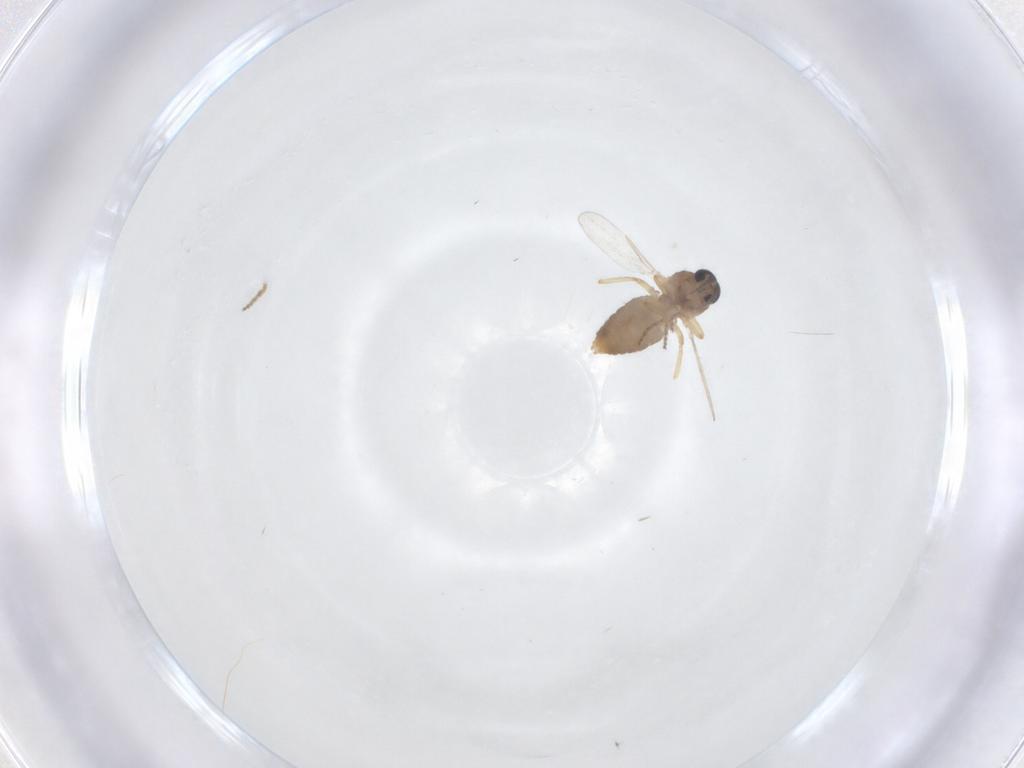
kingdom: Animalia
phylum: Arthropoda
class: Insecta
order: Diptera
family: Ceratopogonidae
